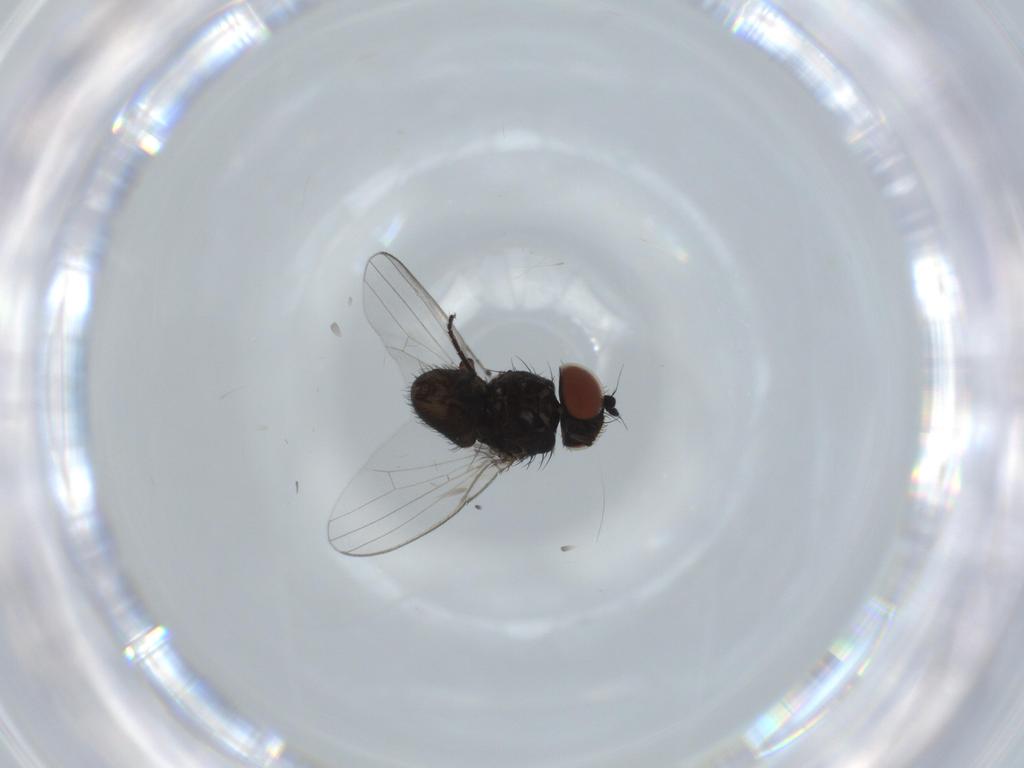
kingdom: Animalia
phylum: Arthropoda
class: Insecta
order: Diptera
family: Milichiidae
